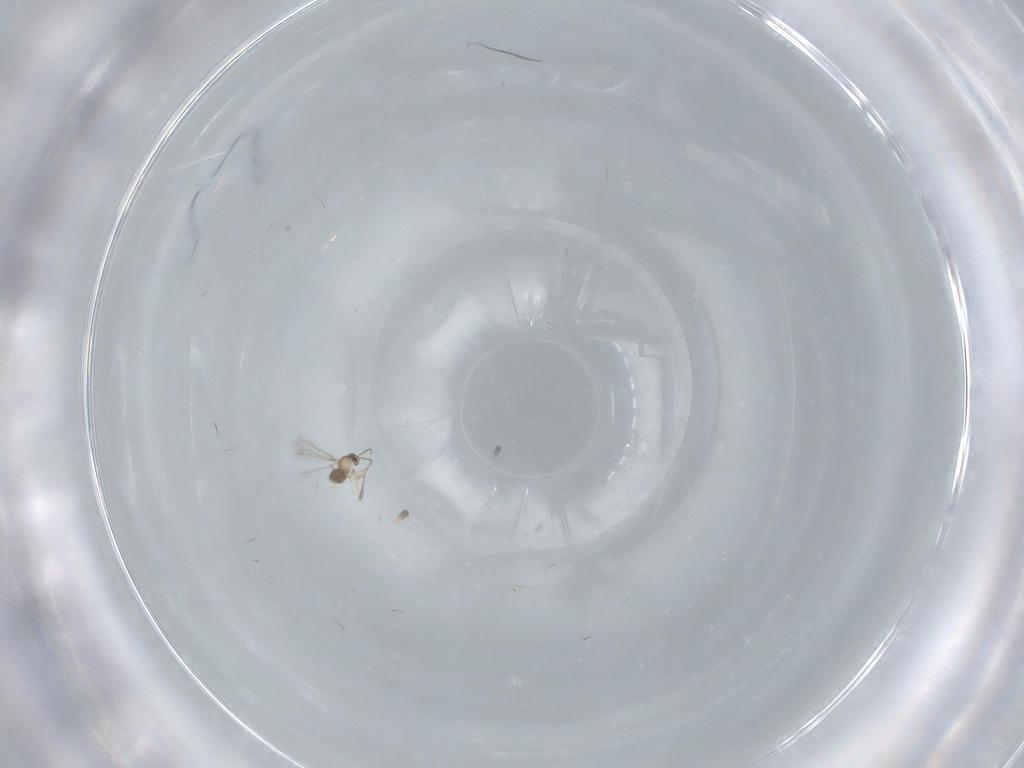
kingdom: Animalia
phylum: Arthropoda
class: Insecta
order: Hymenoptera
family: Mymaridae
